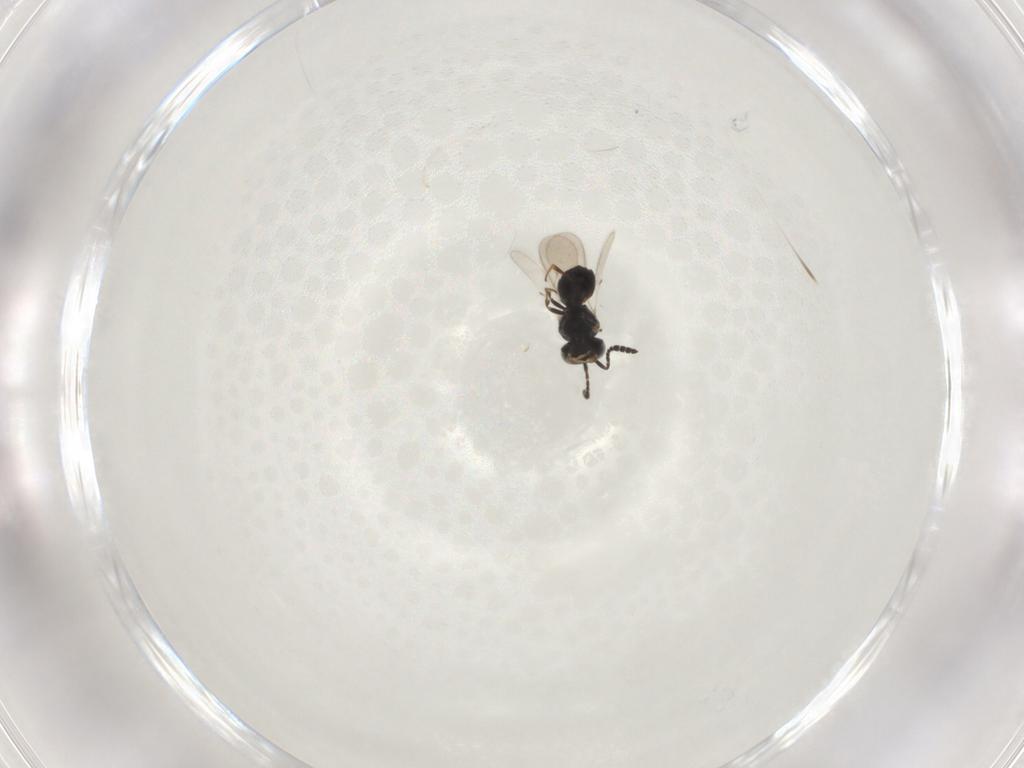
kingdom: Animalia
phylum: Arthropoda
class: Insecta
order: Hymenoptera
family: Scelionidae
